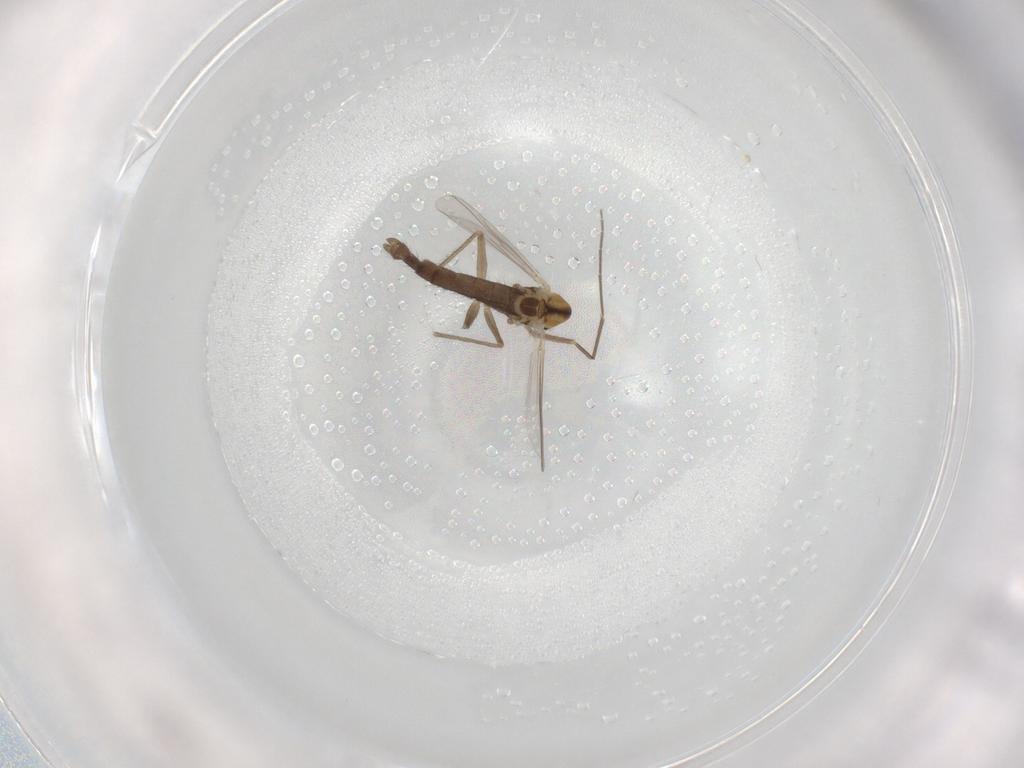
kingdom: Animalia
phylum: Arthropoda
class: Insecta
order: Diptera
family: Chironomidae
